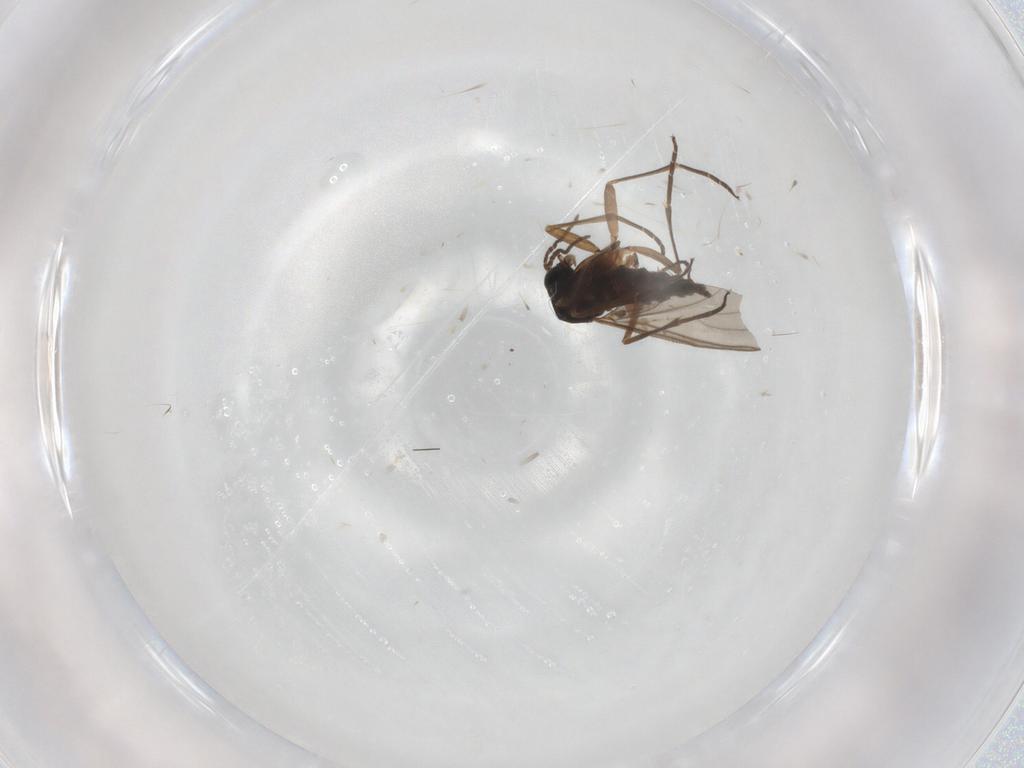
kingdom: Animalia
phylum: Arthropoda
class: Insecta
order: Diptera
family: Sciaridae
